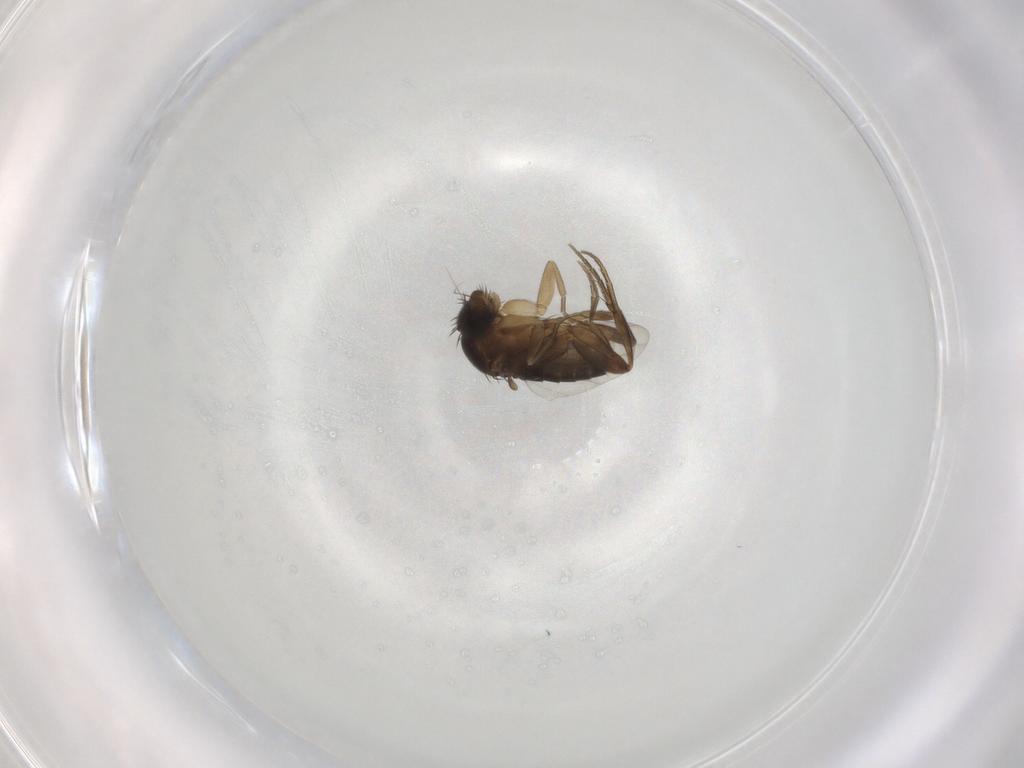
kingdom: Animalia
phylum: Arthropoda
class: Insecta
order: Diptera
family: Phoridae
